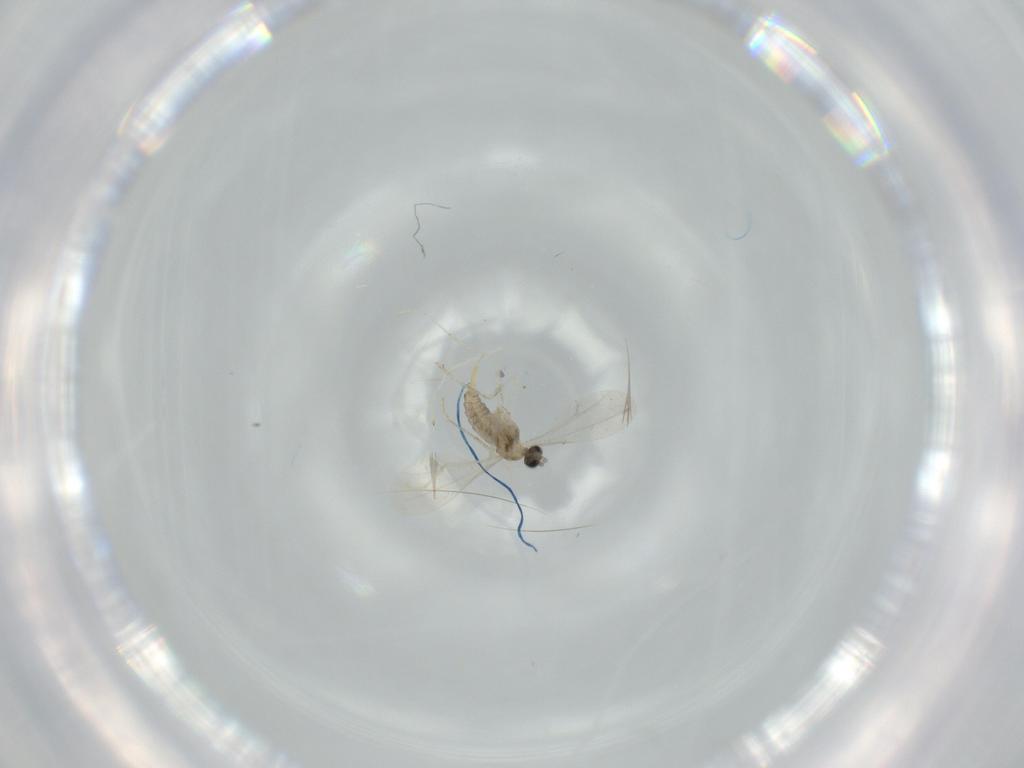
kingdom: Animalia
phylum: Arthropoda
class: Insecta
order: Diptera
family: Cecidomyiidae
